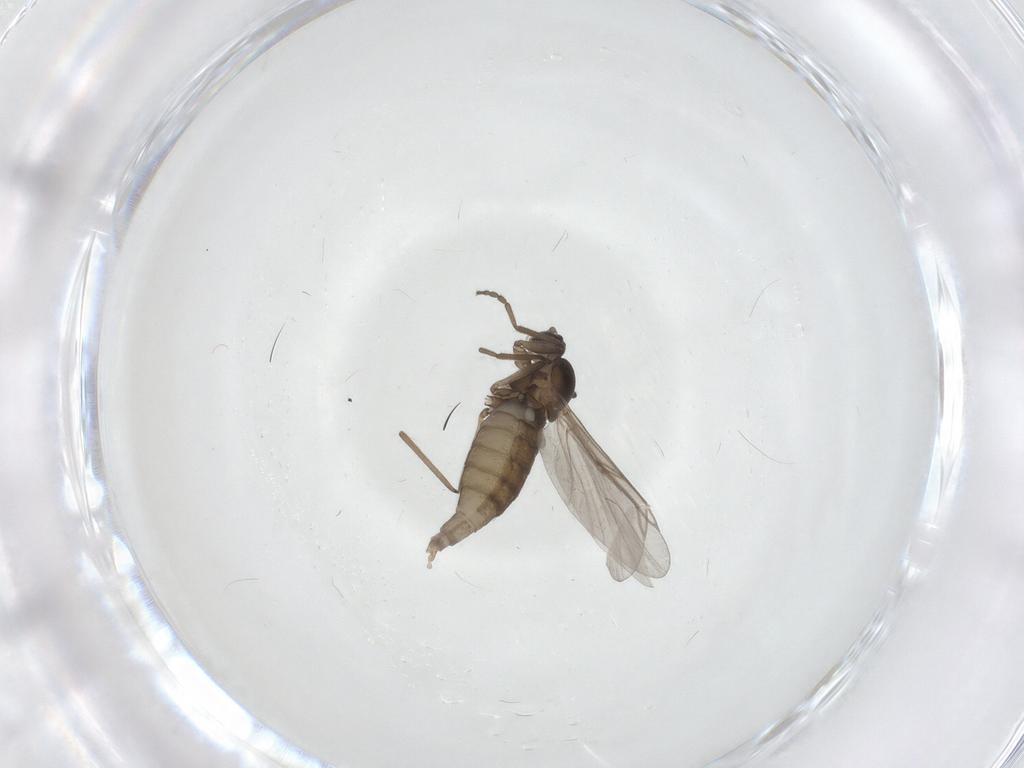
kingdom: Animalia
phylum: Arthropoda
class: Insecta
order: Diptera
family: Cecidomyiidae
